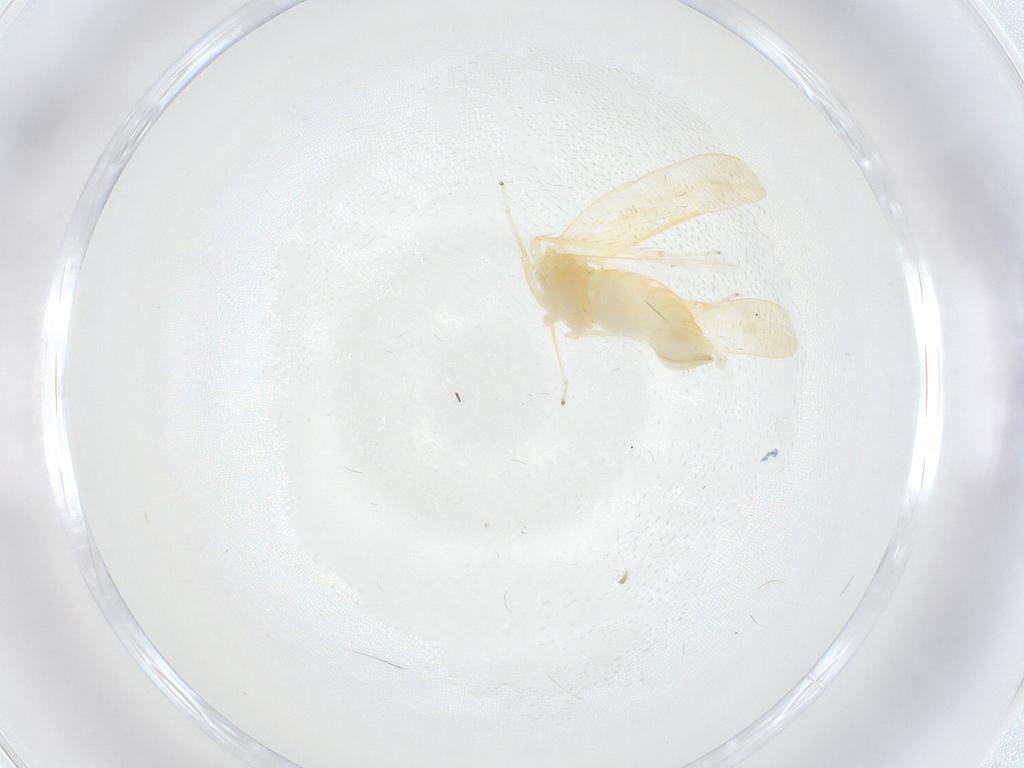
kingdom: Animalia
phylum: Arthropoda
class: Insecta
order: Hemiptera
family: Cicadellidae
